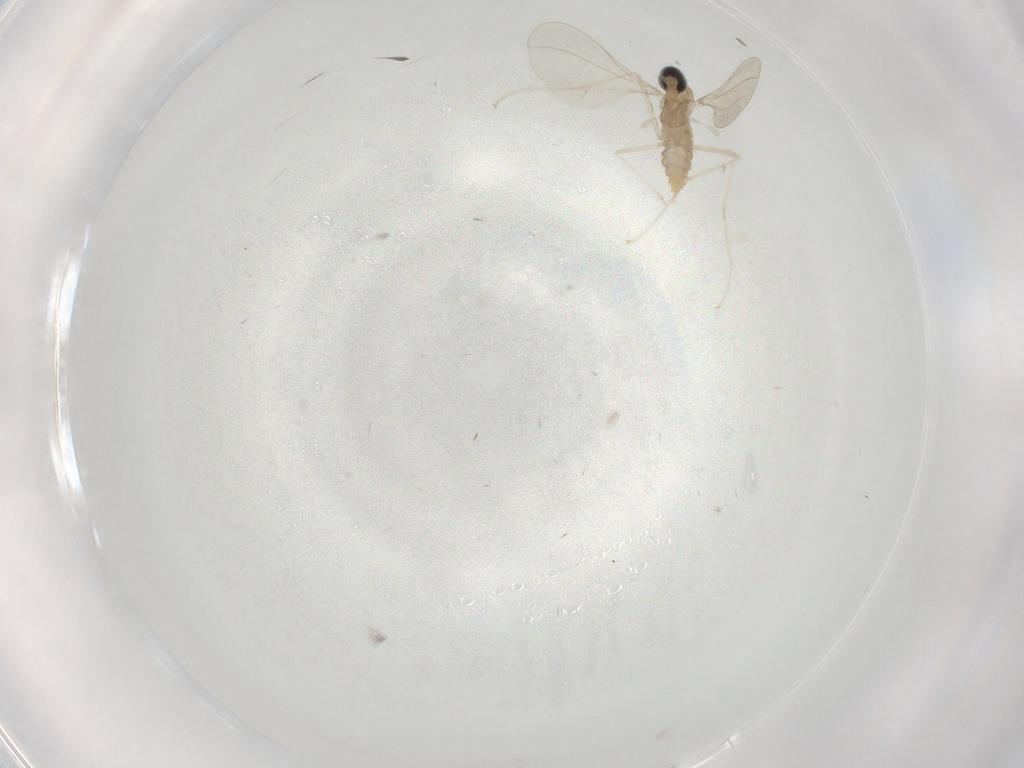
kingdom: Animalia
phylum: Arthropoda
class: Insecta
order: Diptera
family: Cecidomyiidae
